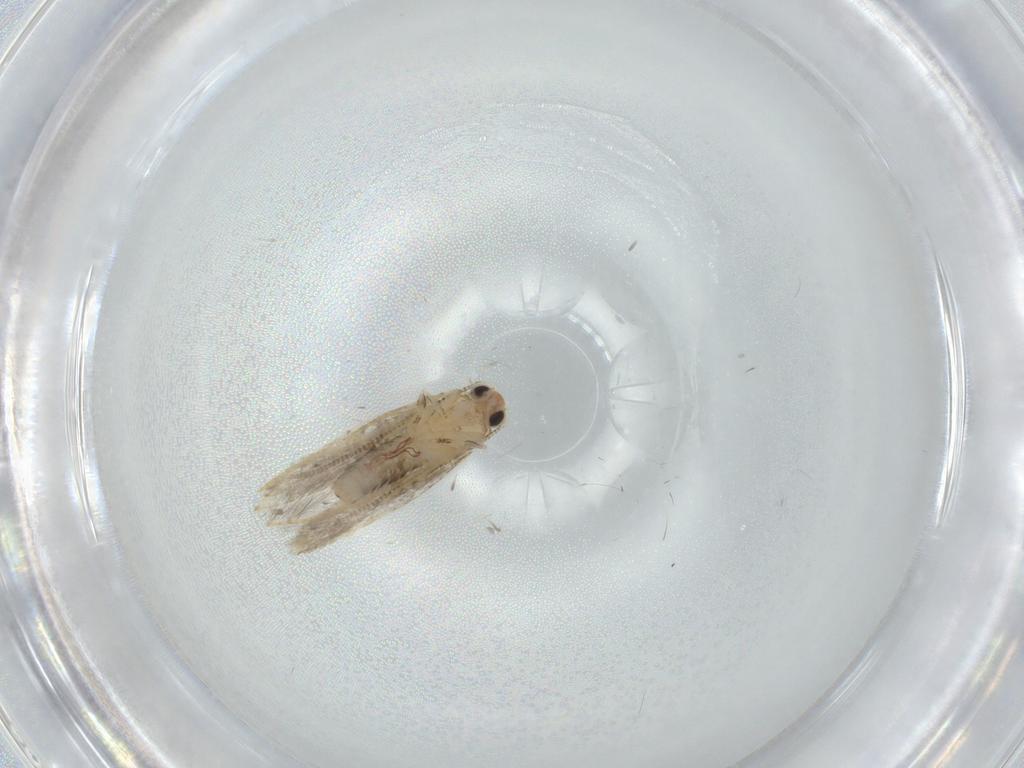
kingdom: Animalia
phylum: Arthropoda
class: Insecta
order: Lepidoptera
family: Tineidae
